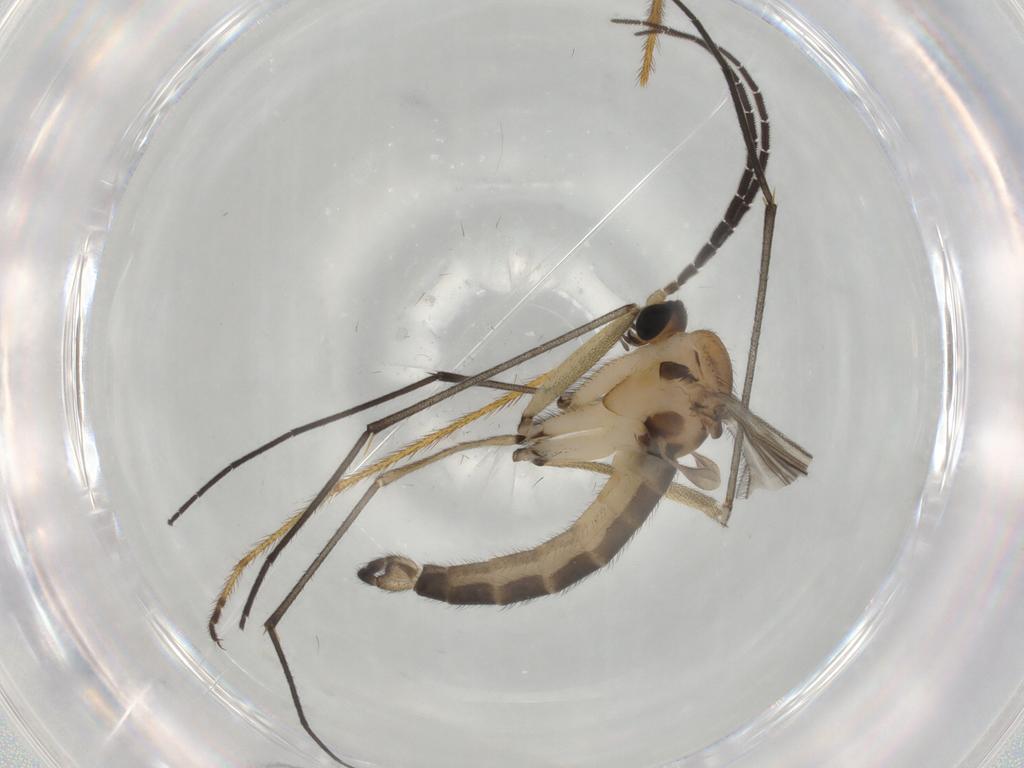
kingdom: Animalia
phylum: Arthropoda
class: Insecta
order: Diptera
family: Sciaridae
